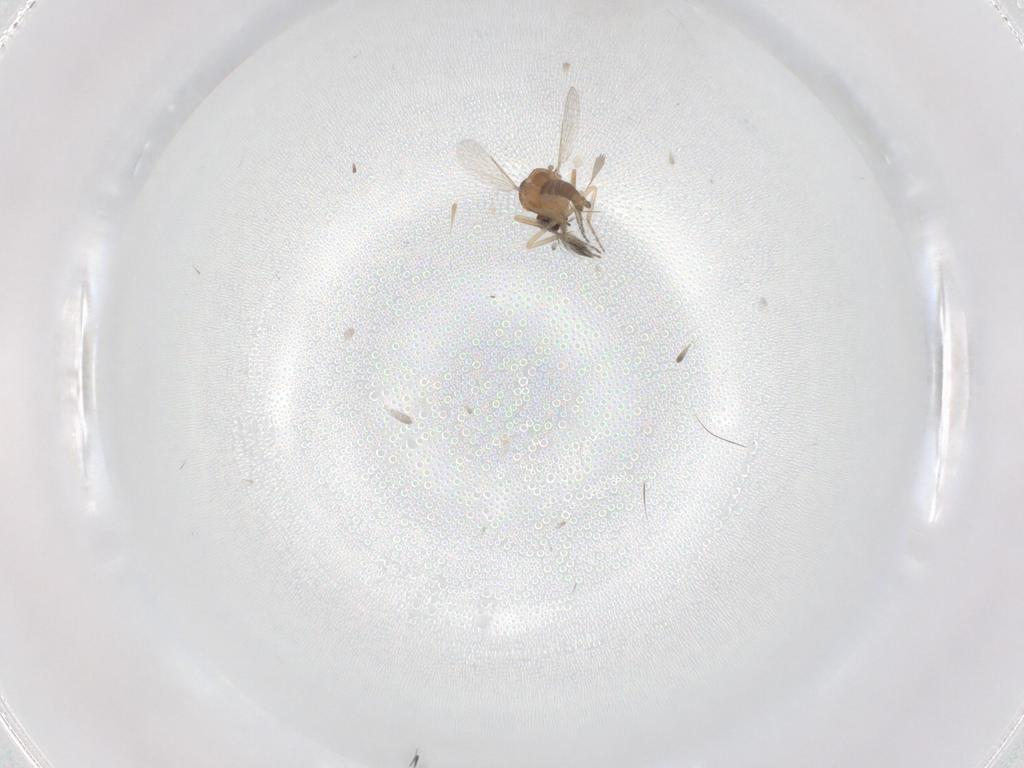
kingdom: Animalia
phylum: Arthropoda
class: Insecta
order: Diptera
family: Ceratopogonidae
